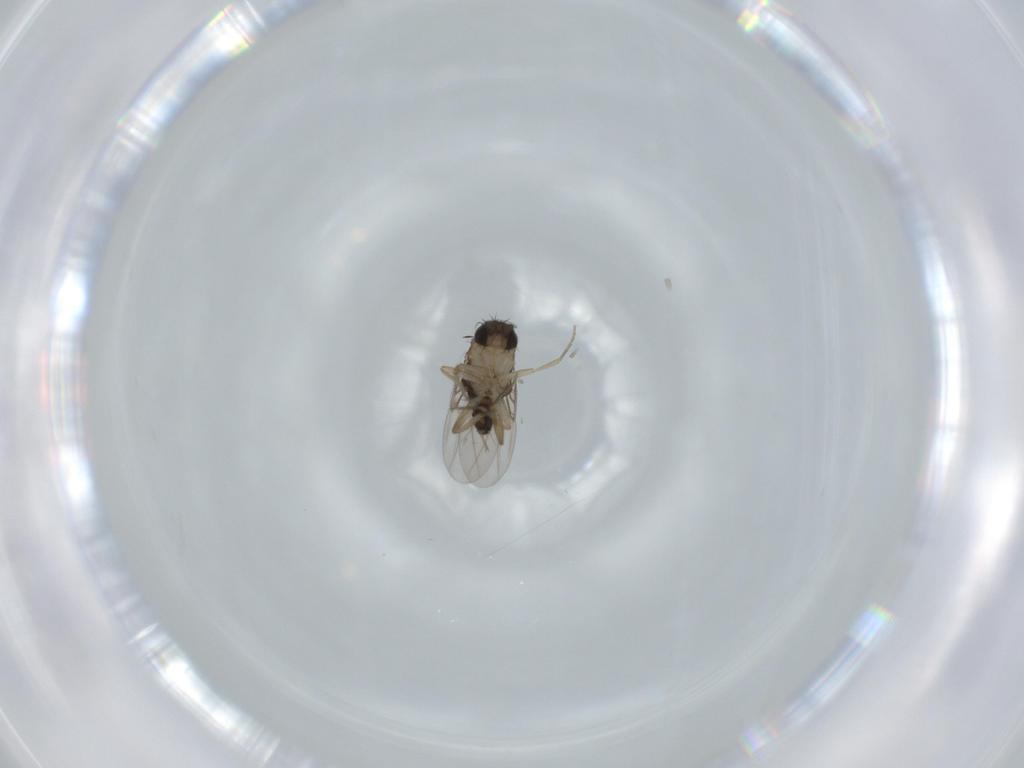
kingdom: Animalia
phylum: Arthropoda
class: Insecta
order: Diptera
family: Phoridae
